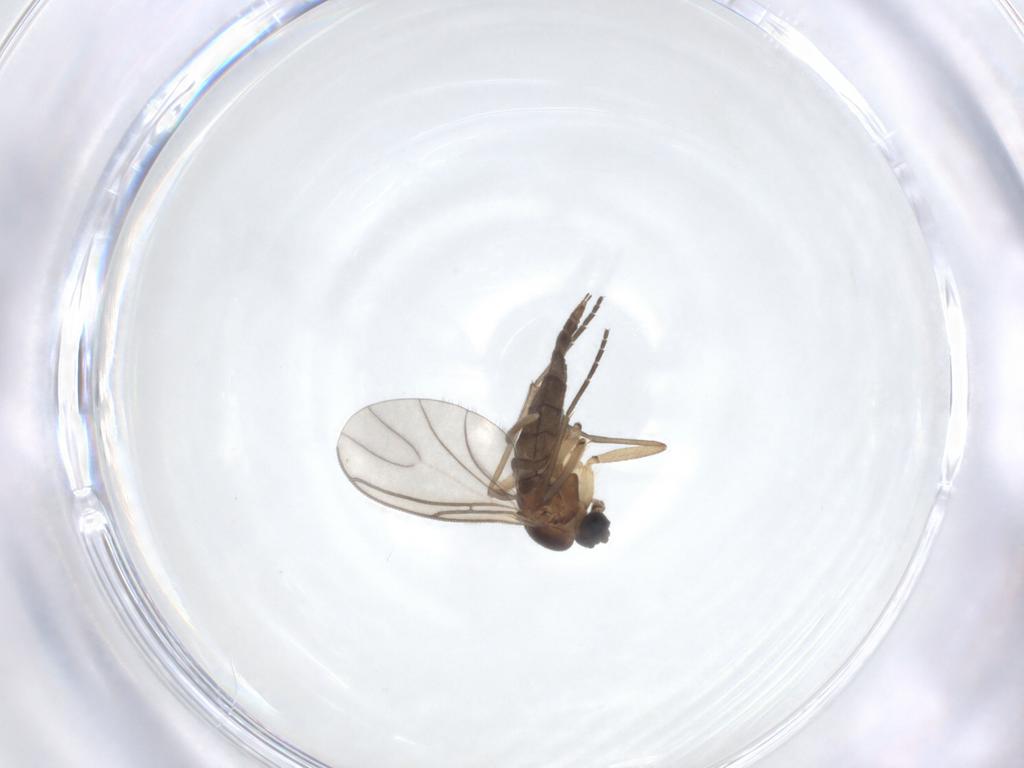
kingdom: Animalia
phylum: Arthropoda
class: Insecta
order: Diptera
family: Sciaridae
